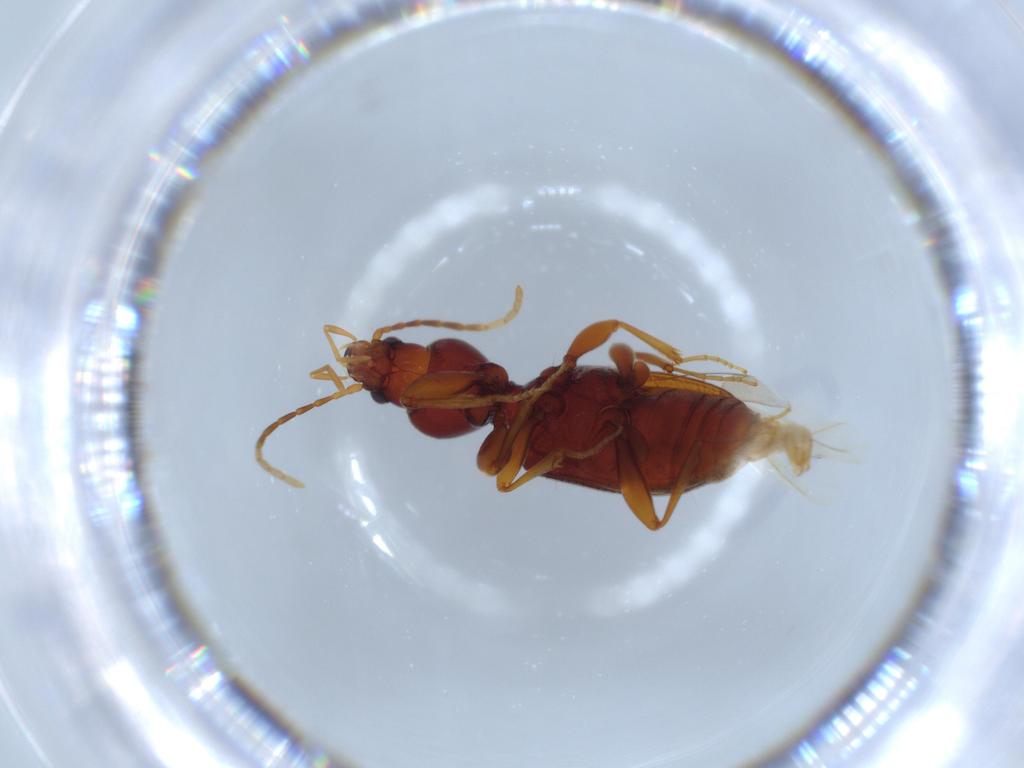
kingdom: Animalia
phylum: Arthropoda
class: Insecta
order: Coleoptera
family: Carabidae
